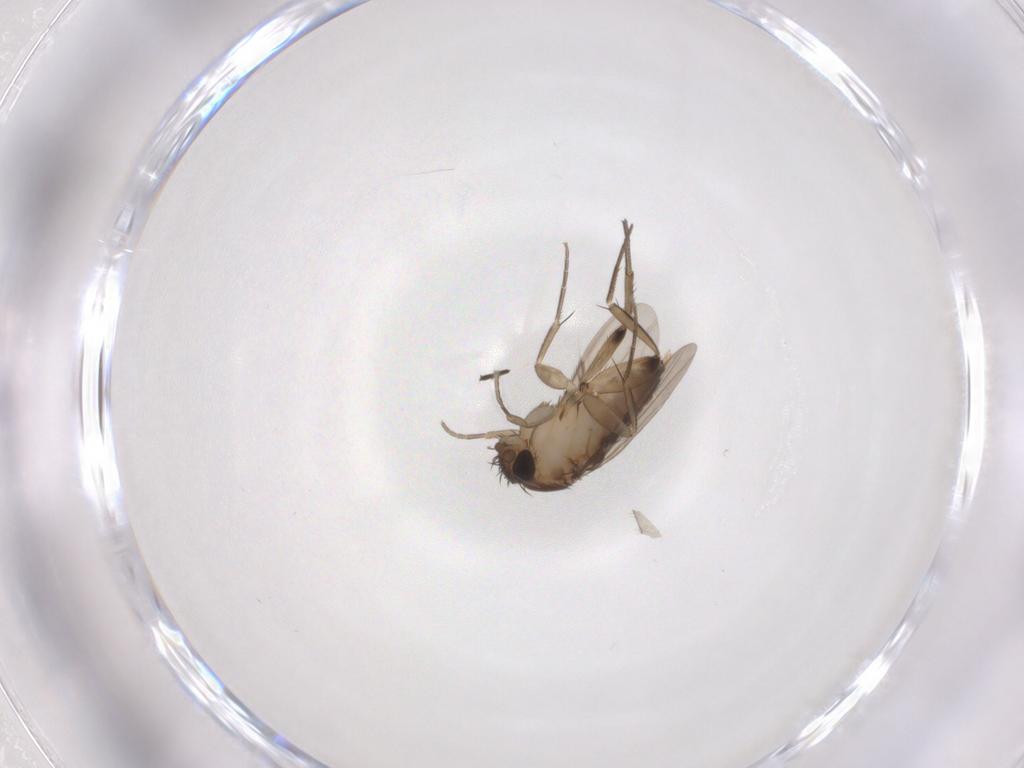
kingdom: Animalia
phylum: Arthropoda
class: Insecta
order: Diptera
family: Phoridae
